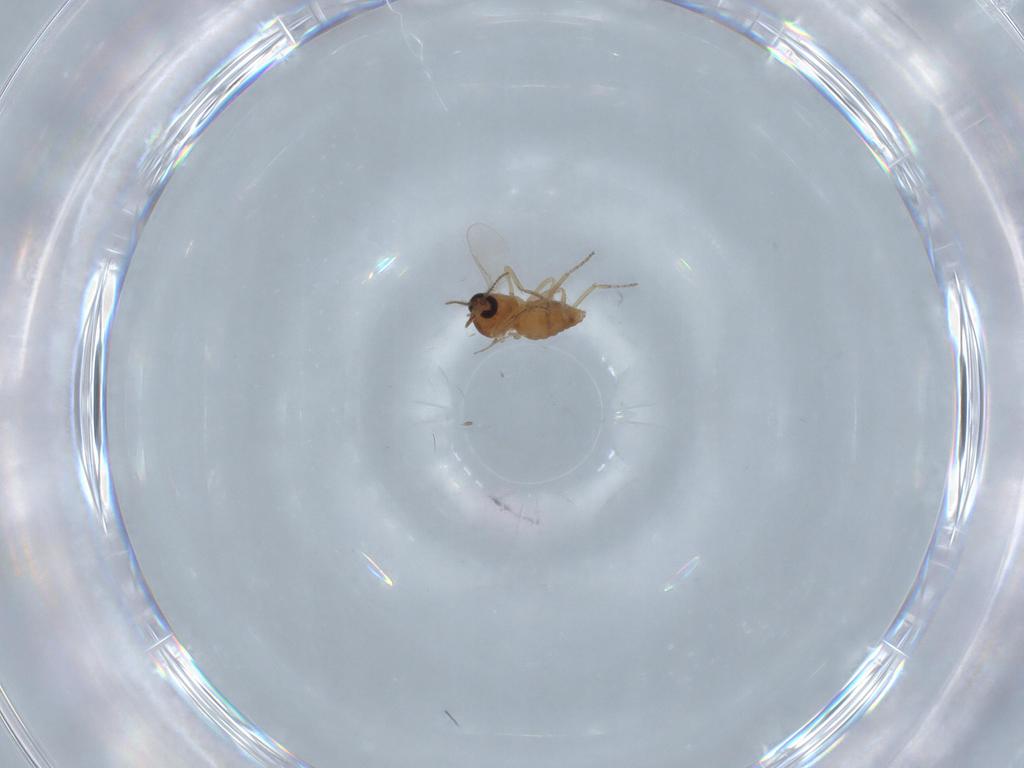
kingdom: Animalia
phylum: Arthropoda
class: Insecta
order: Diptera
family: Ceratopogonidae
